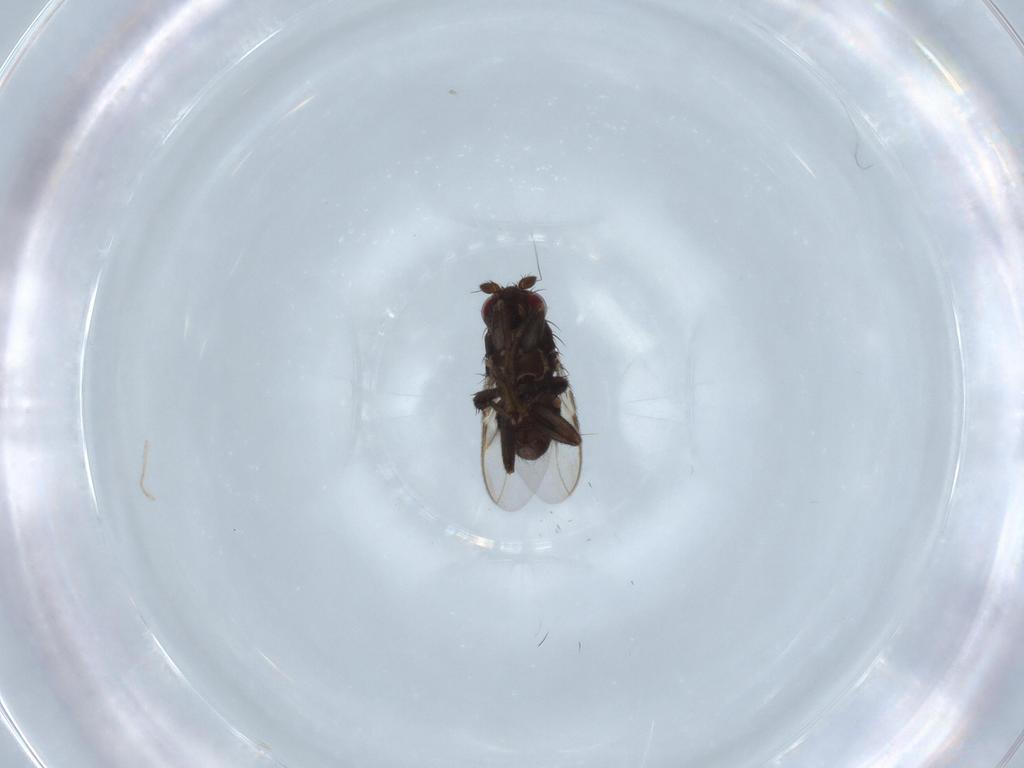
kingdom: Animalia
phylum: Arthropoda
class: Insecta
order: Diptera
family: Sphaeroceridae
